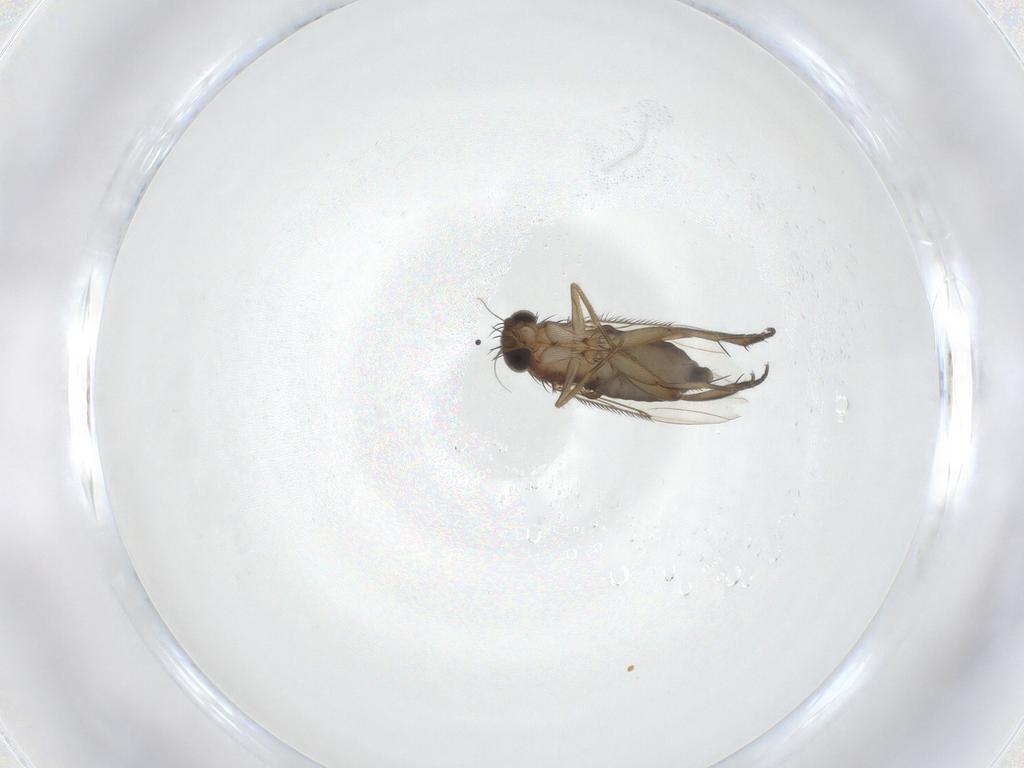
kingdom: Animalia
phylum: Arthropoda
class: Insecta
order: Diptera
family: Phoridae
